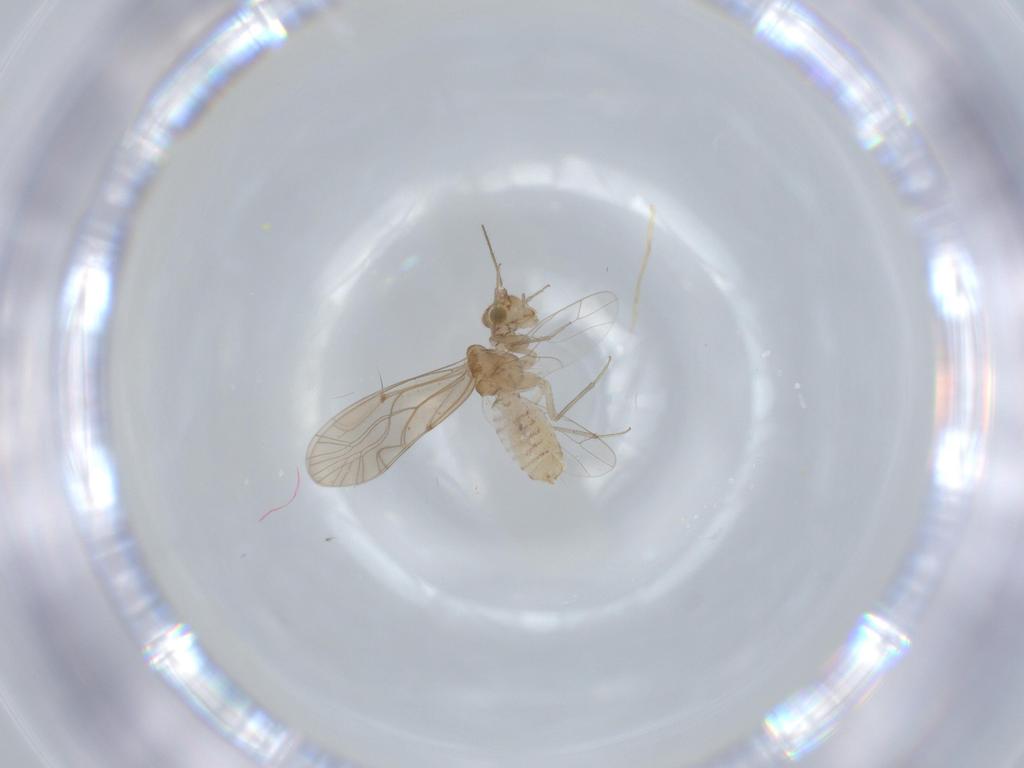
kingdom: Animalia
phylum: Arthropoda
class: Insecta
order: Psocodea
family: Lachesillidae
